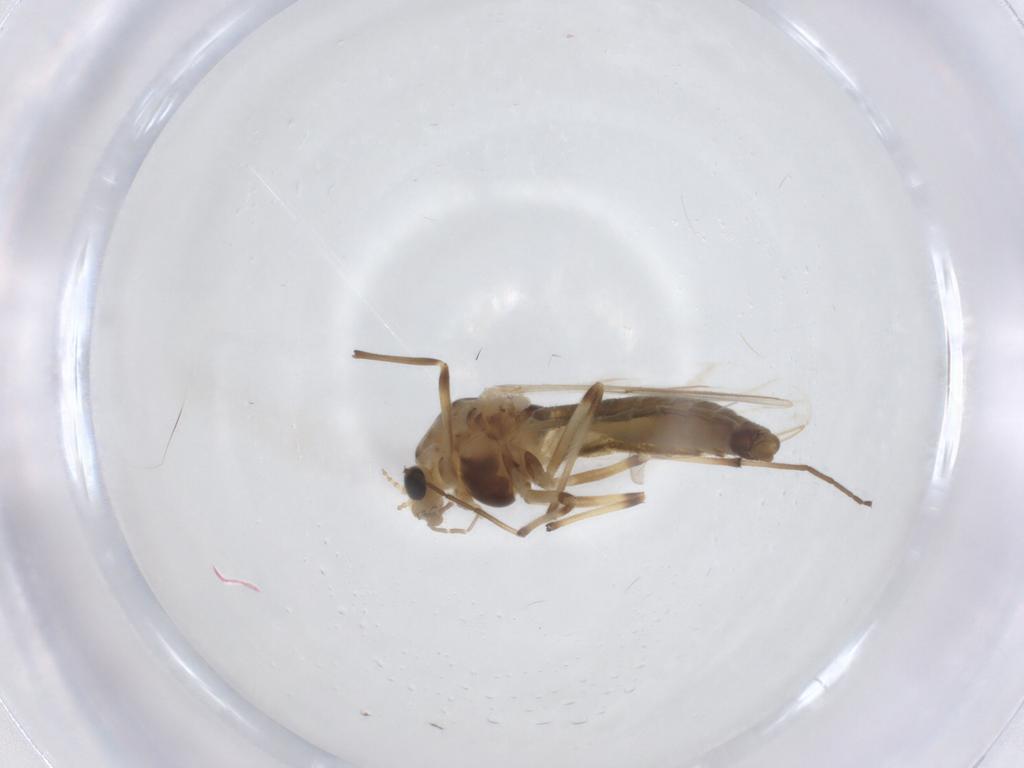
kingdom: Animalia
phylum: Arthropoda
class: Insecta
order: Diptera
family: Chironomidae
